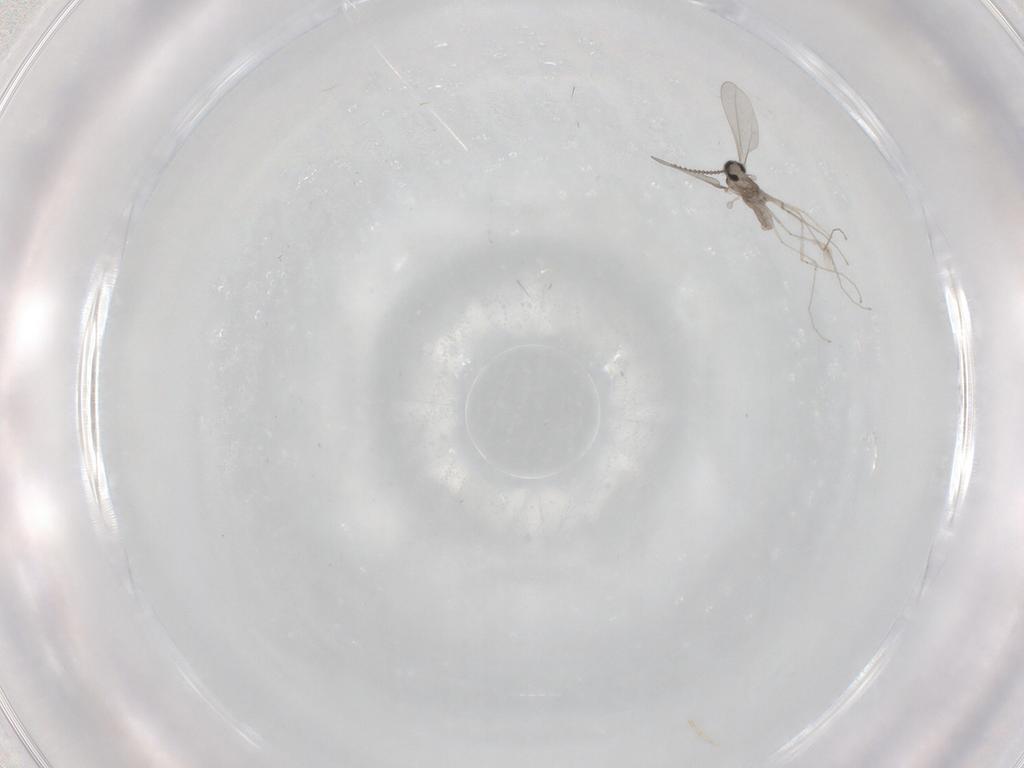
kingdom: Animalia
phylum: Arthropoda
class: Insecta
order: Diptera
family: Cecidomyiidae
